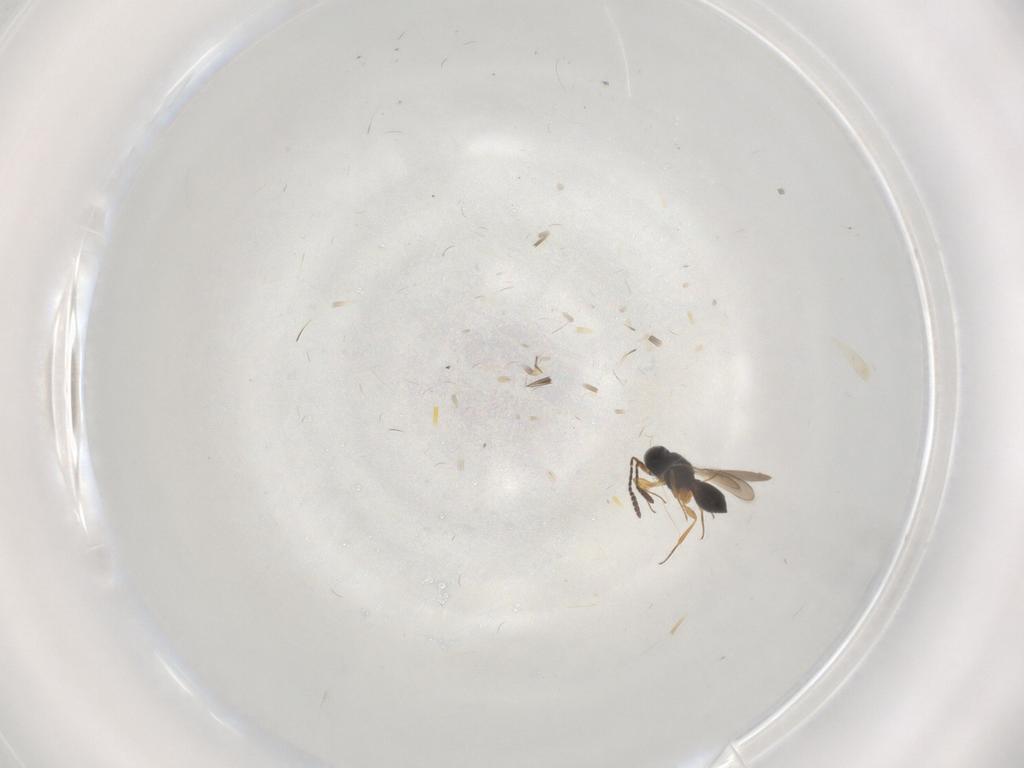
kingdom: Animalia
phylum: Arthropoda
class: Insecta
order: Hymenoptera
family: Scelionidae
